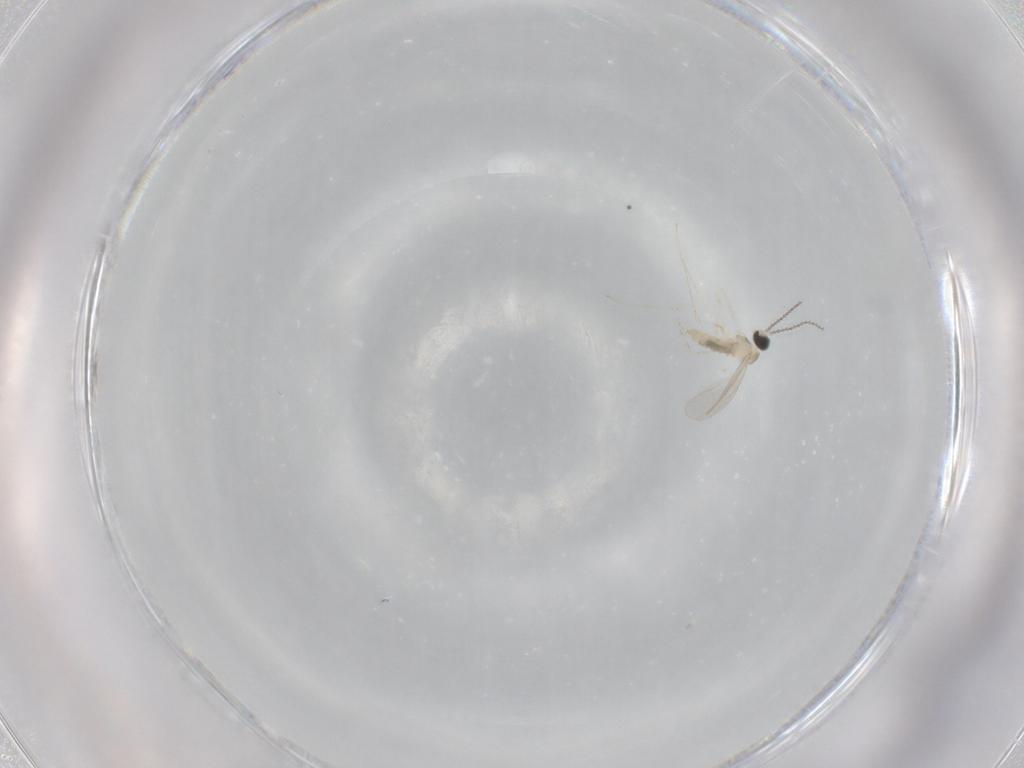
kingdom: Animalia
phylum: Arthropoda
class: Insecta
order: Diptera
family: Cecidomyiidae
